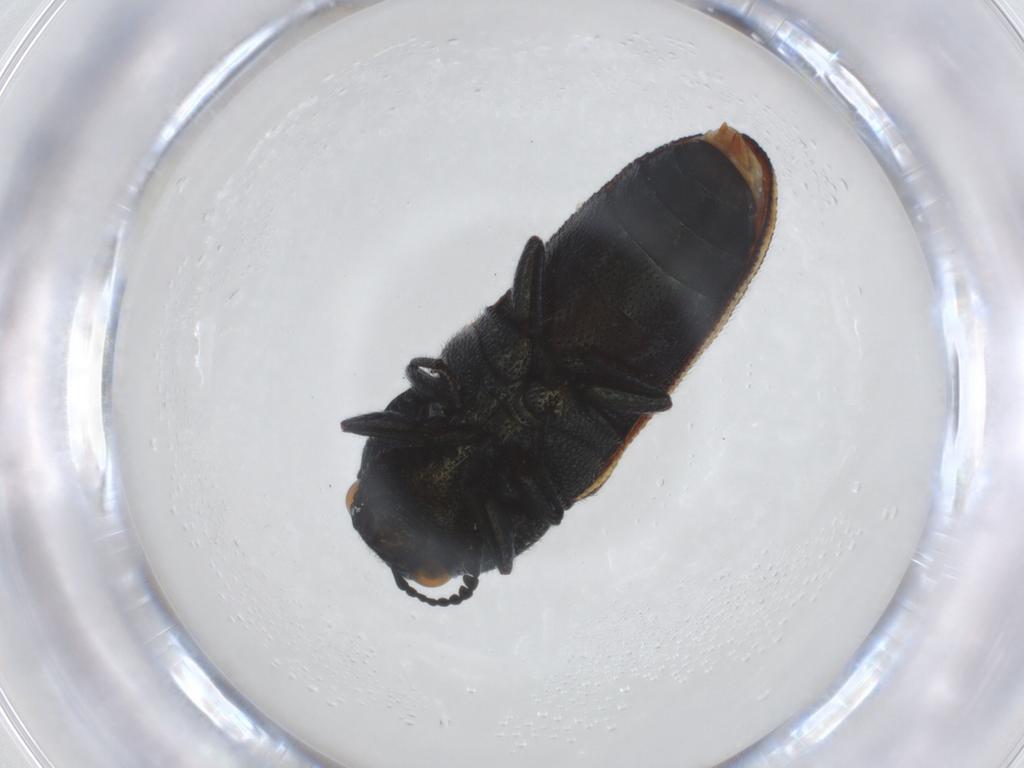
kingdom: Animalia
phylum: Arthropoda
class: Insecta
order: Coleoptera
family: Buprestidae
